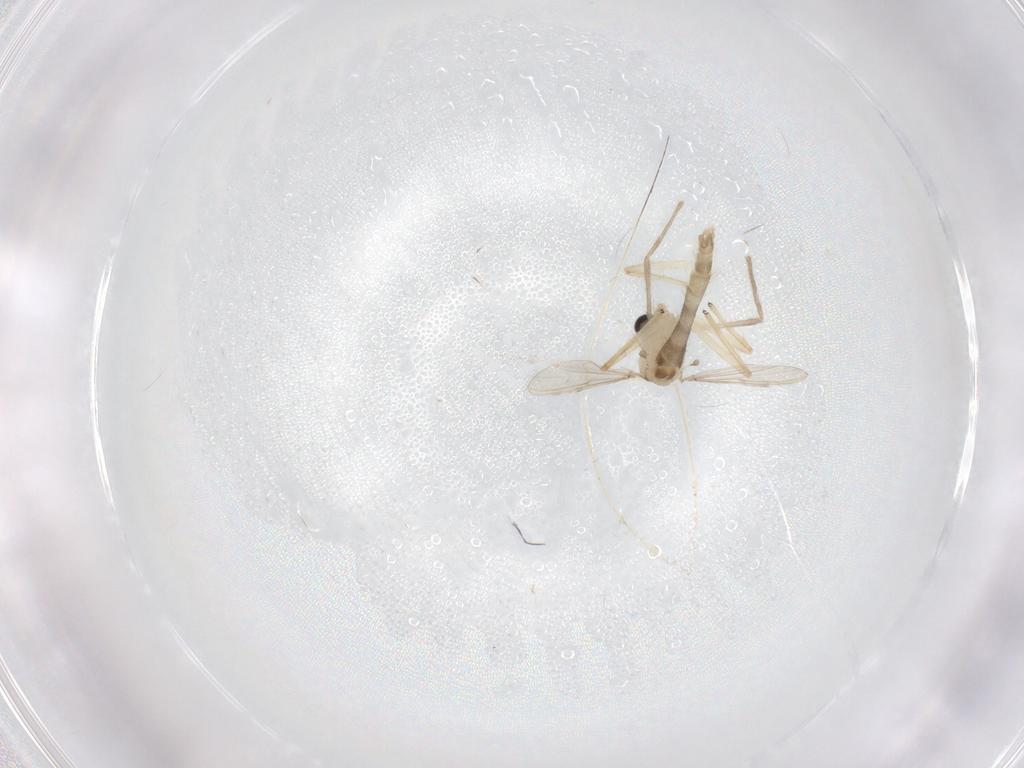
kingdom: Animalia
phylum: Arthropoda
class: Insecta
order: Diptera
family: Chironomidae
